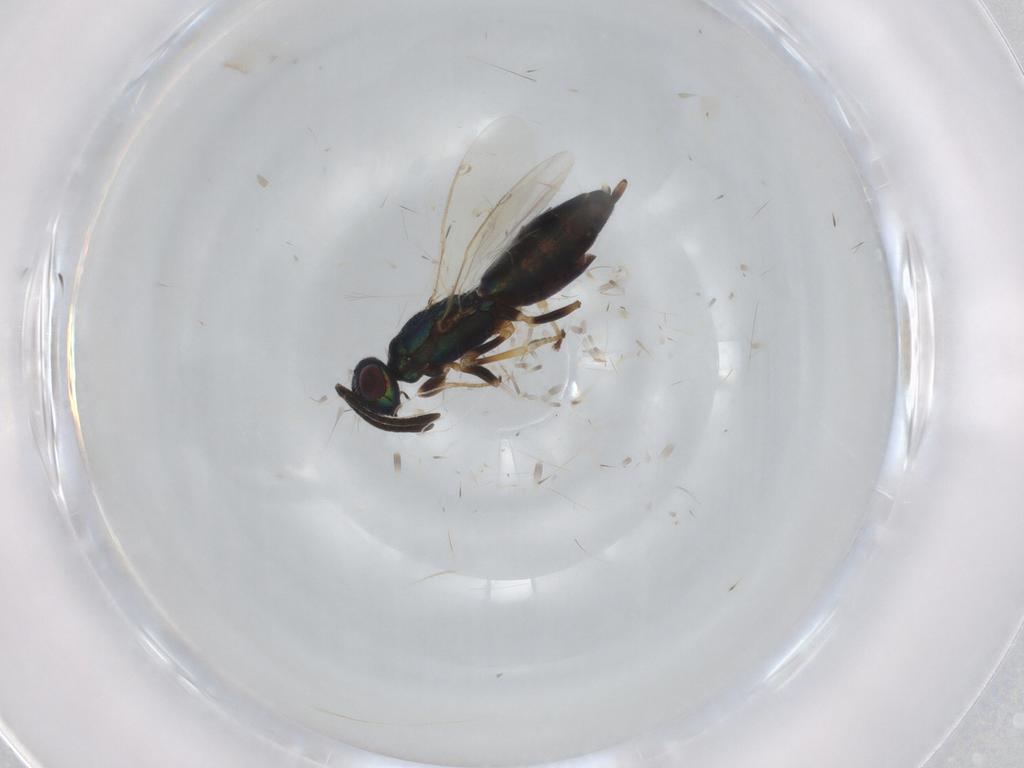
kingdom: Animalia
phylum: Arthropoda
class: Insecta
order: Hymenoptera
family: Eupelmidae
